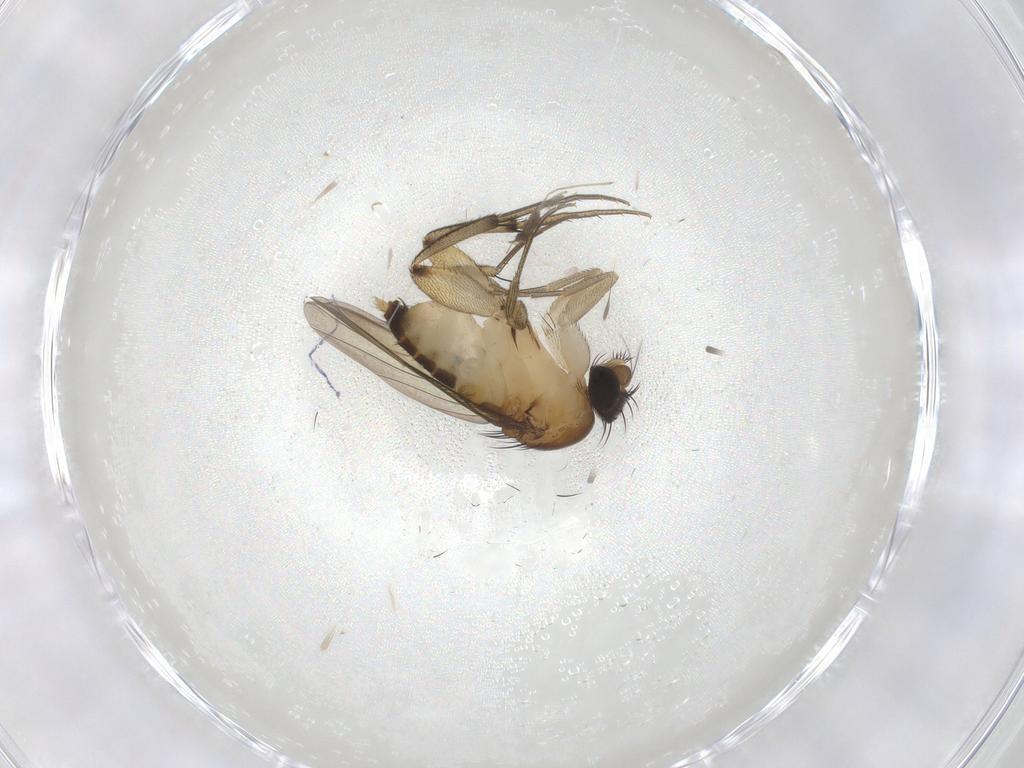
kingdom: Animalia
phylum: Arthropoda
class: Insecta
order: Diptera
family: Phoridae
